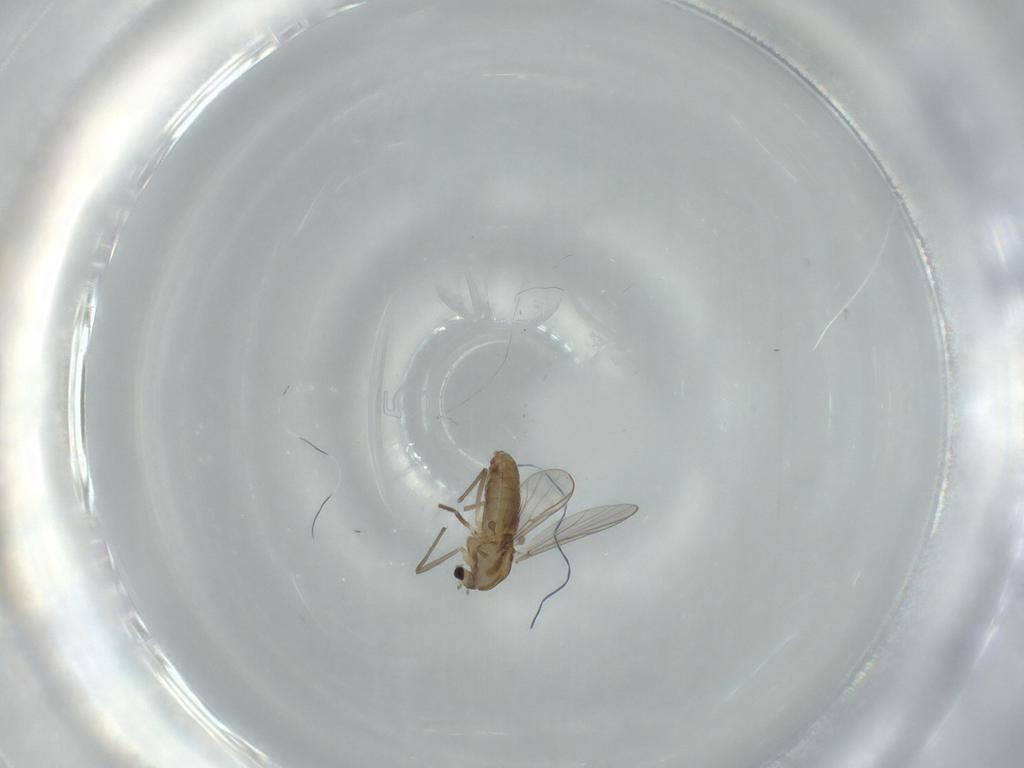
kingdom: Animalia
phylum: Arthropoda
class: Insecta
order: Diptera
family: Chironomidae
